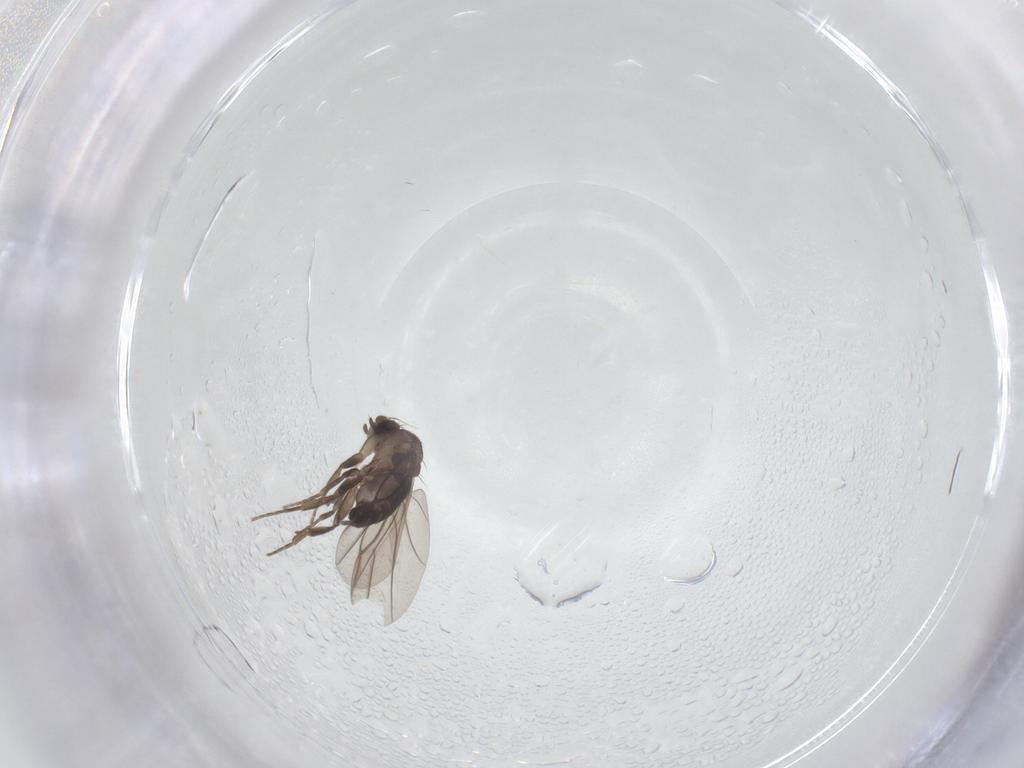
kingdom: Animalia
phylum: Arthropoda
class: Insecta
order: Diptera
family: Phoridae
